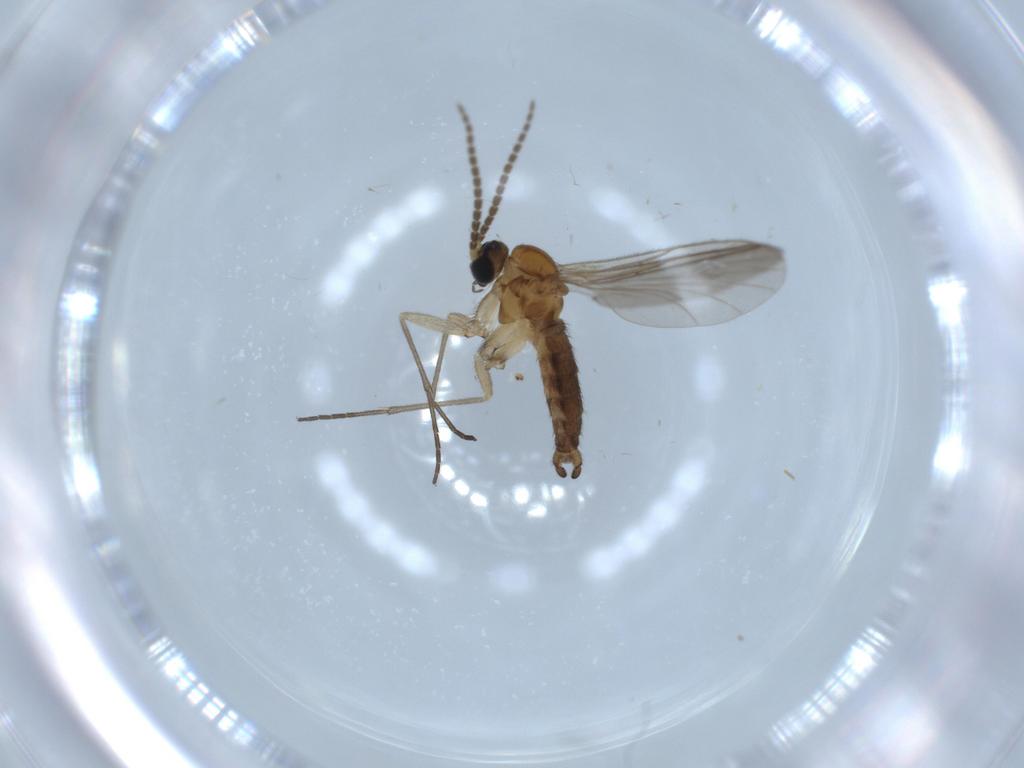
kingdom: Animalia
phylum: Arthropoda
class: Insecta
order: Diptera
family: Sciaridae
